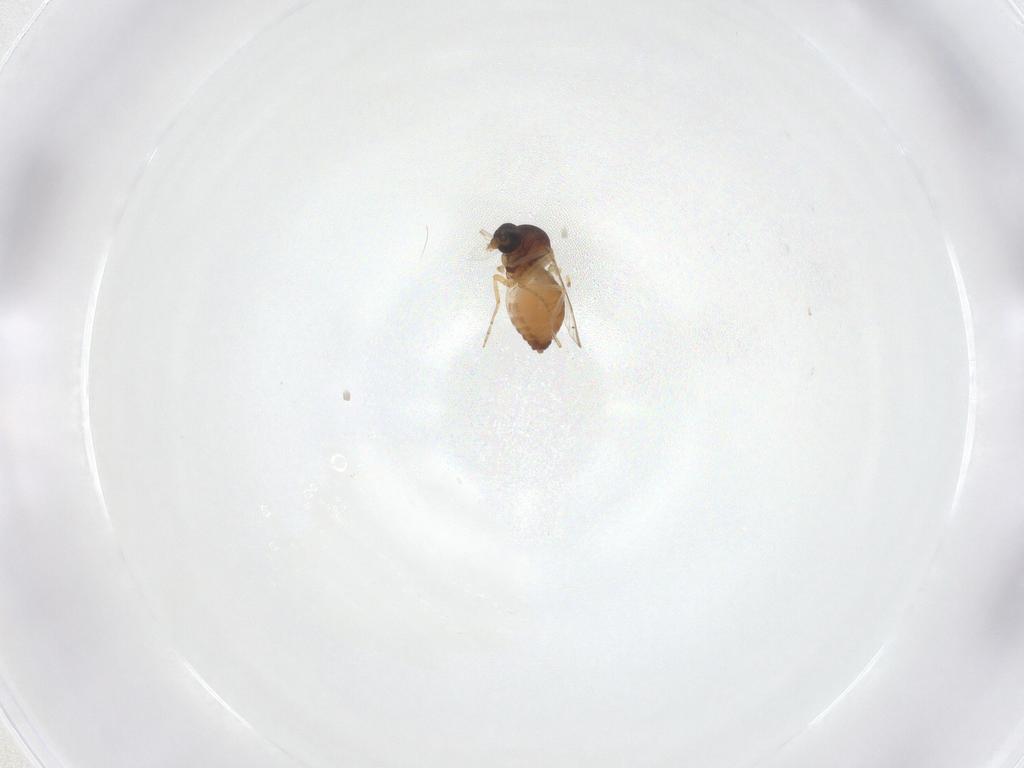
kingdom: Animalia
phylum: Arthropoda
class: Insecta
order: Diptera
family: Ceratopogonidae
